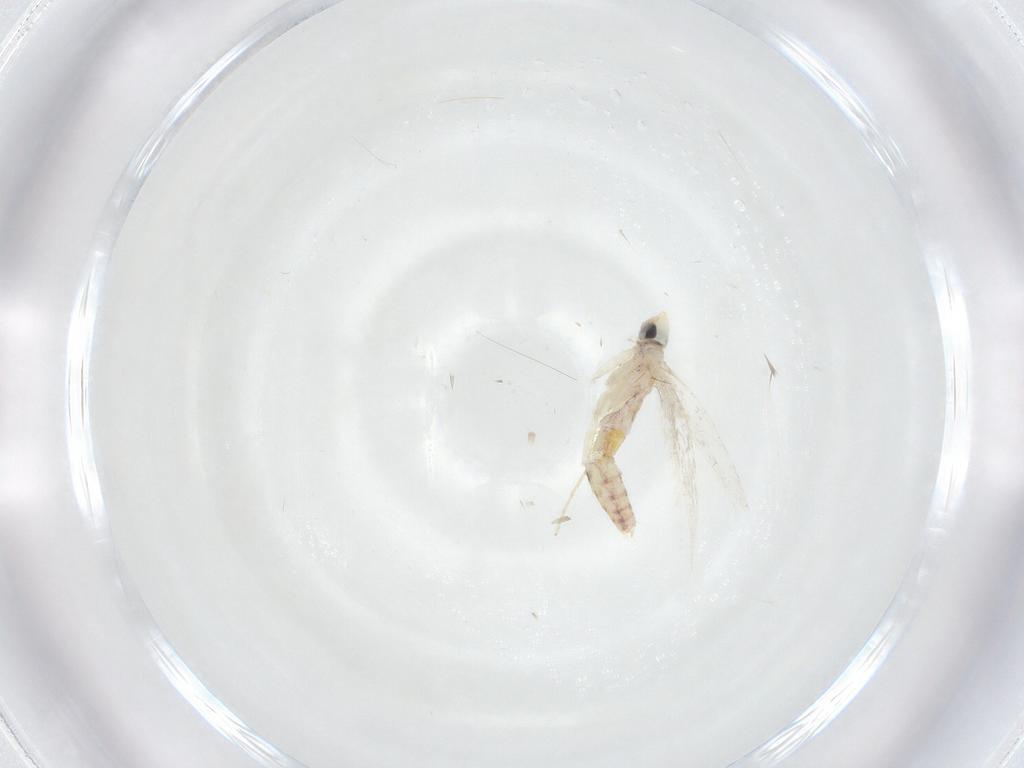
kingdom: Animalia
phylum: Arthropoda
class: Insecta
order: Lepidoptera
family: Tineidae
